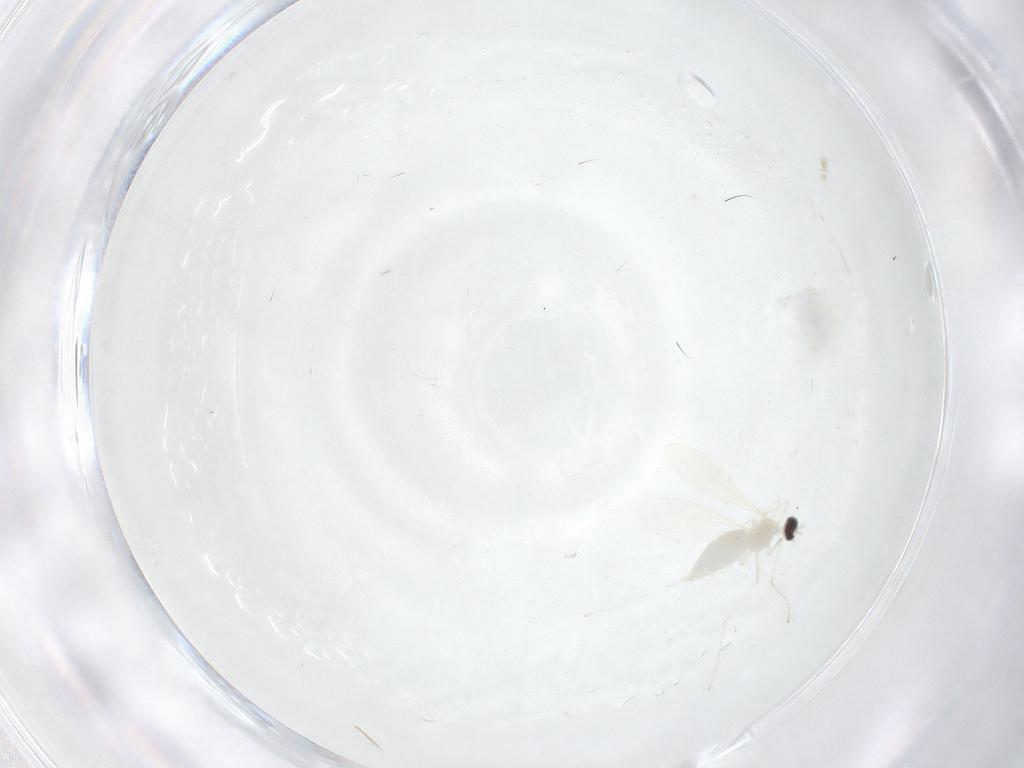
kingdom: Animalia
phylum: Arthropoda
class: Insecta
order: Diptera
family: Cecidomyiidae
